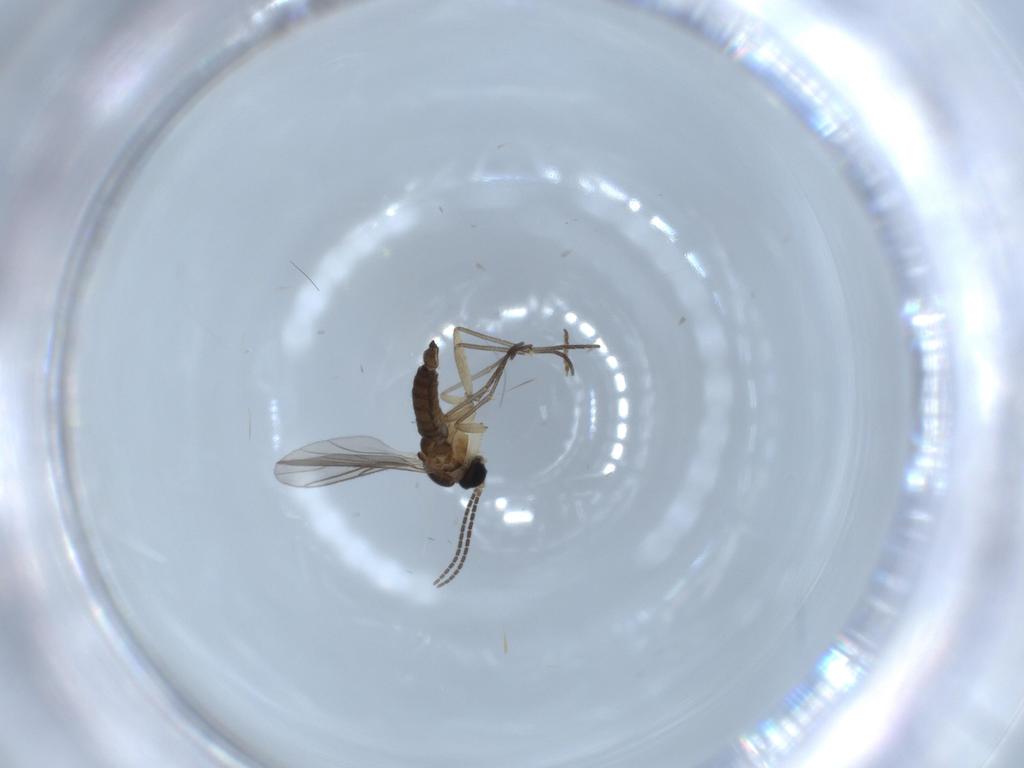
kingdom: Animalia
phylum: Arthropoda
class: Insecta
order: Diptera
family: Sciaridae
